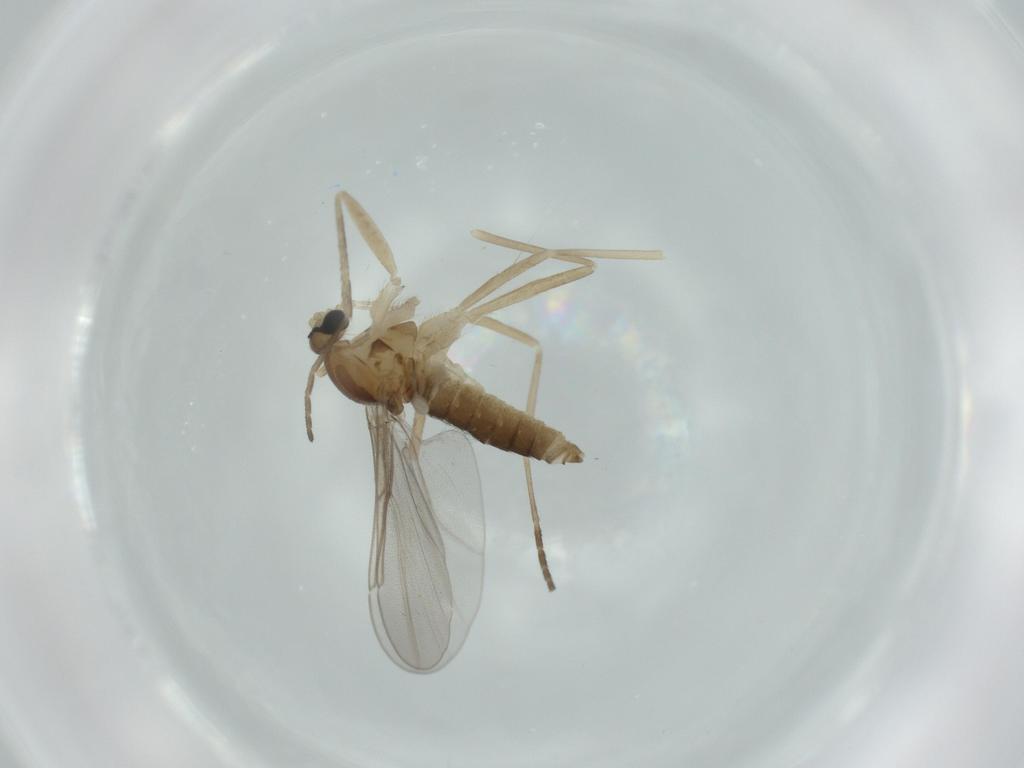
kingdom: Animalia
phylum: Arthropoda
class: Insecta
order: Diptera
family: Cecidomyiidae
